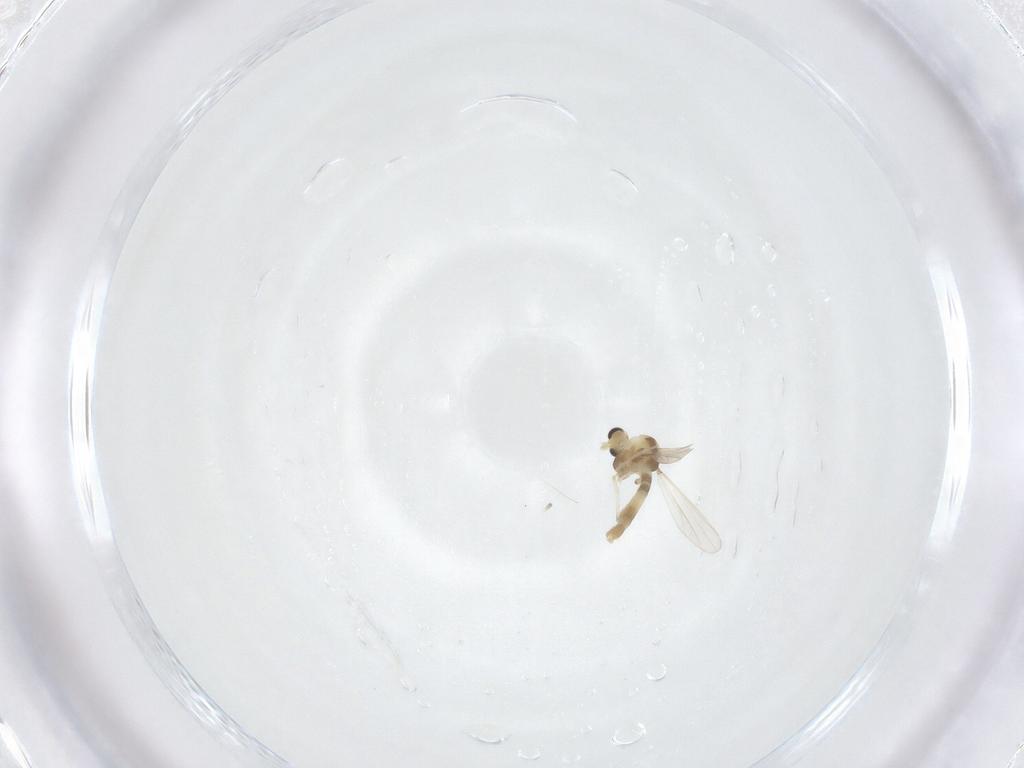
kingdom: Animalia
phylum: Arthropoda
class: Insecta
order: Diptera
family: Chironomidae
